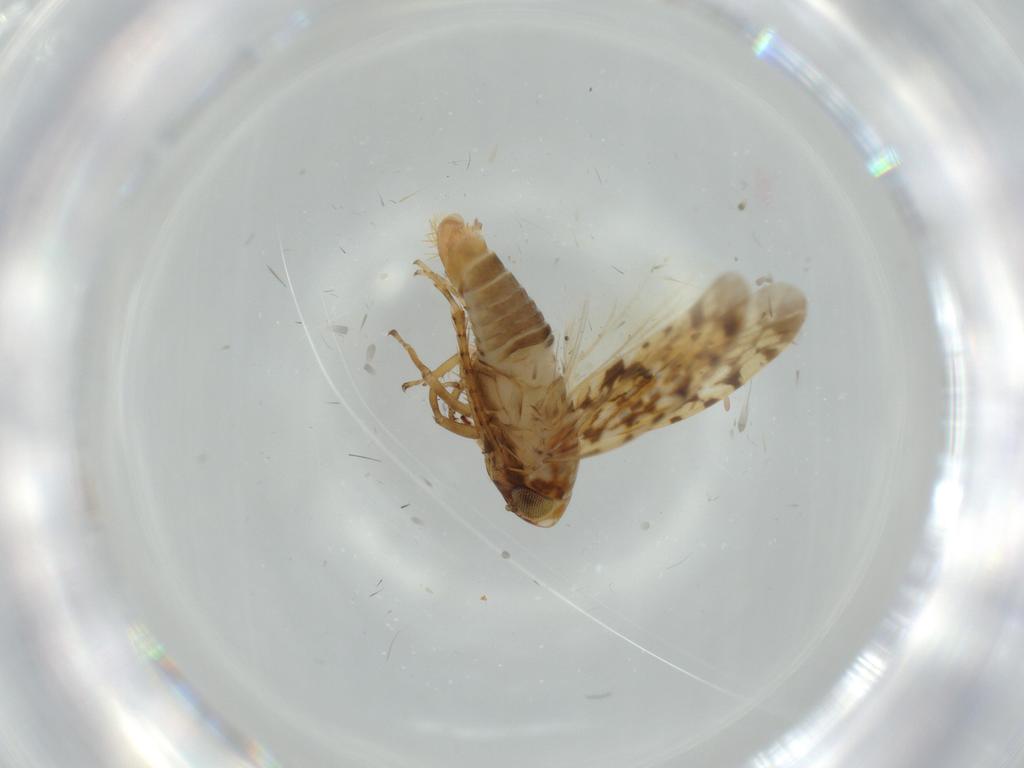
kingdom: Animalia
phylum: Arthropoda
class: Insecta
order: Hemiptera
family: Cicadellidae
